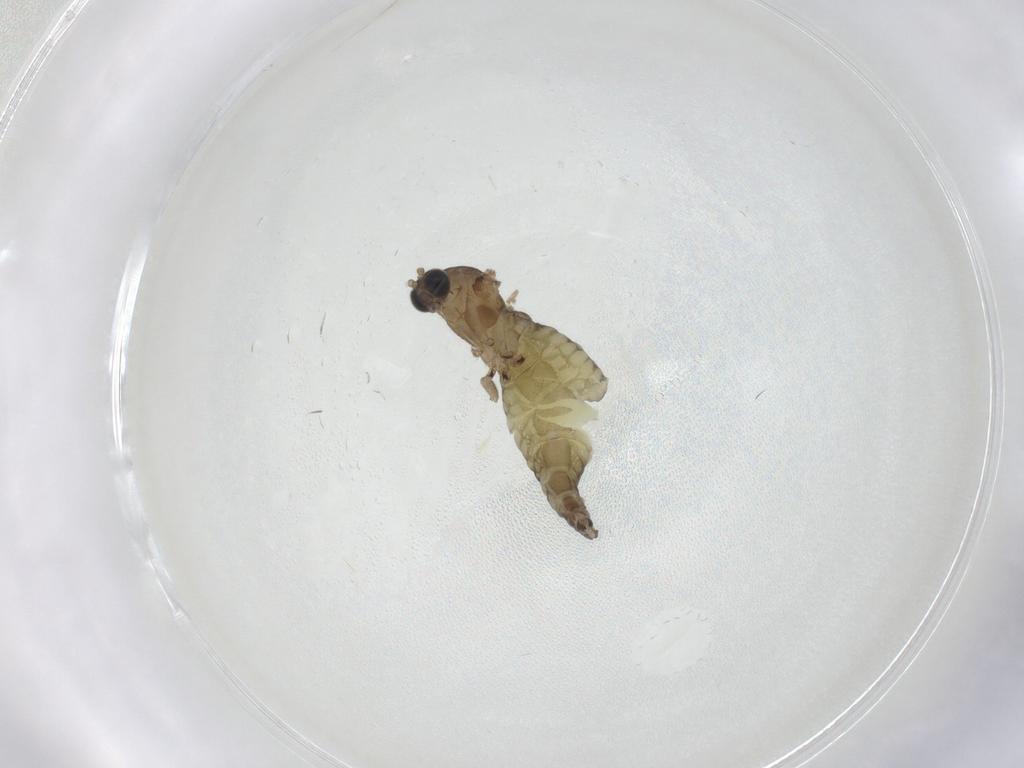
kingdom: Animalia
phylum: Arthropoda
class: Insecta
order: Diptera
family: Sciaridae
